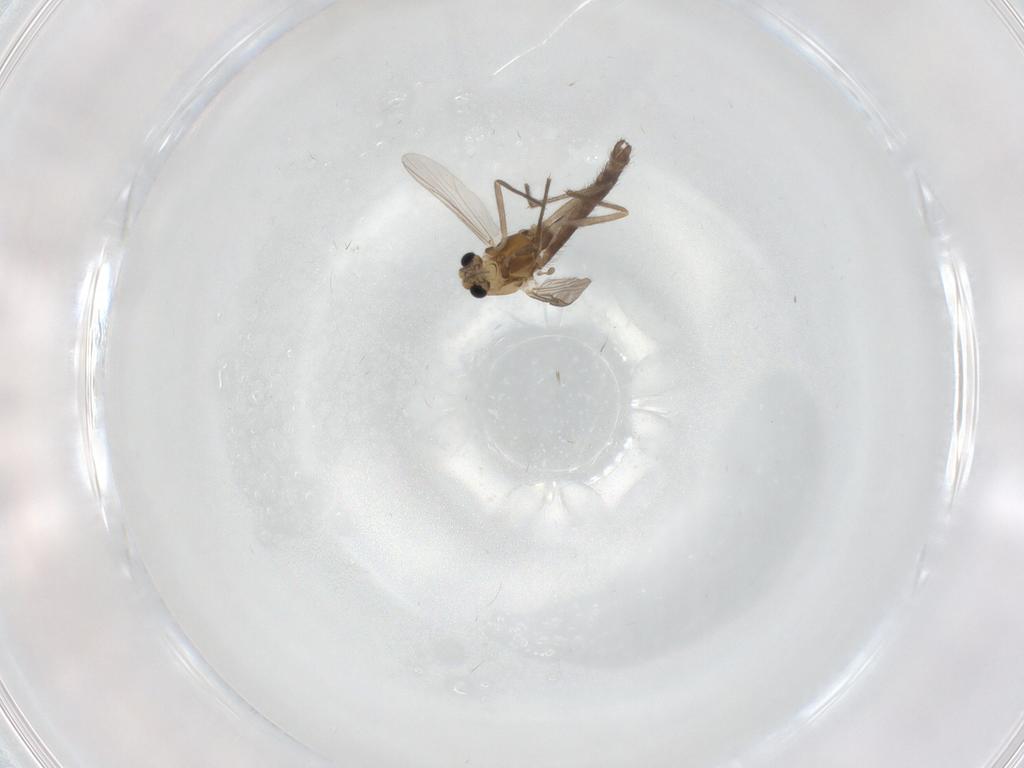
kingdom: Animalia
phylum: Arthropoda
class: Insecta
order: Diptera
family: Chironomidae
